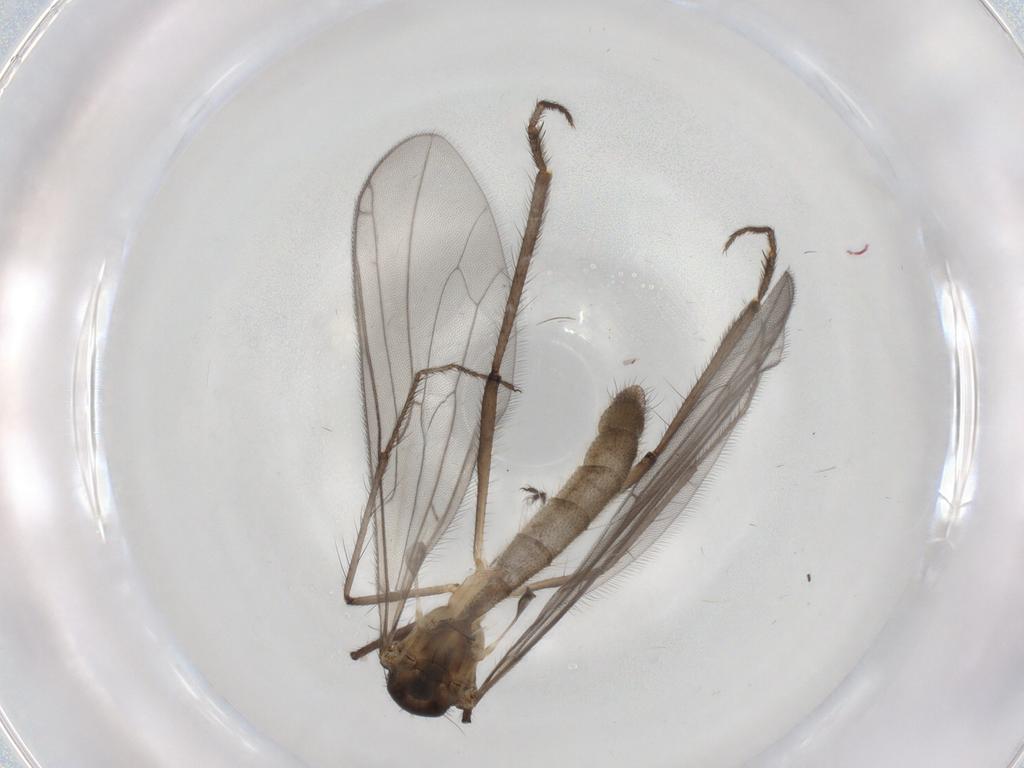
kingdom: Animalia
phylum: Arthropoda
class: Insecta
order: Diptera
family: Hybotidae
